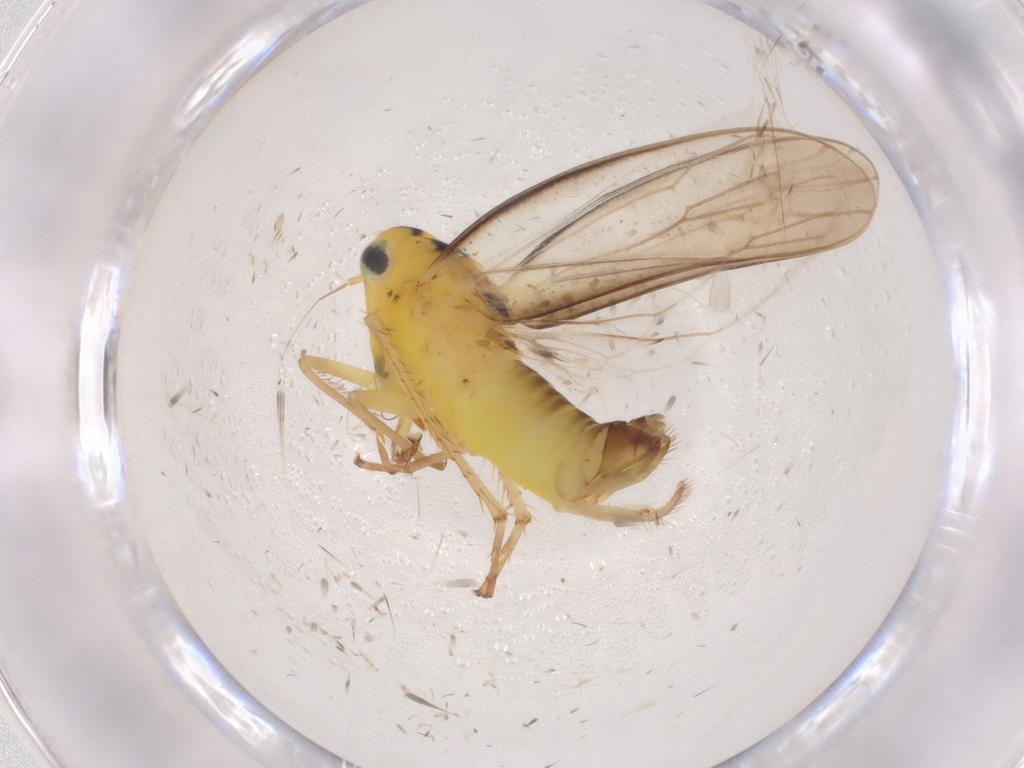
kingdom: Animalia
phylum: Arthropoda
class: Insecta
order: Hemiptera
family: Cicadellidae
